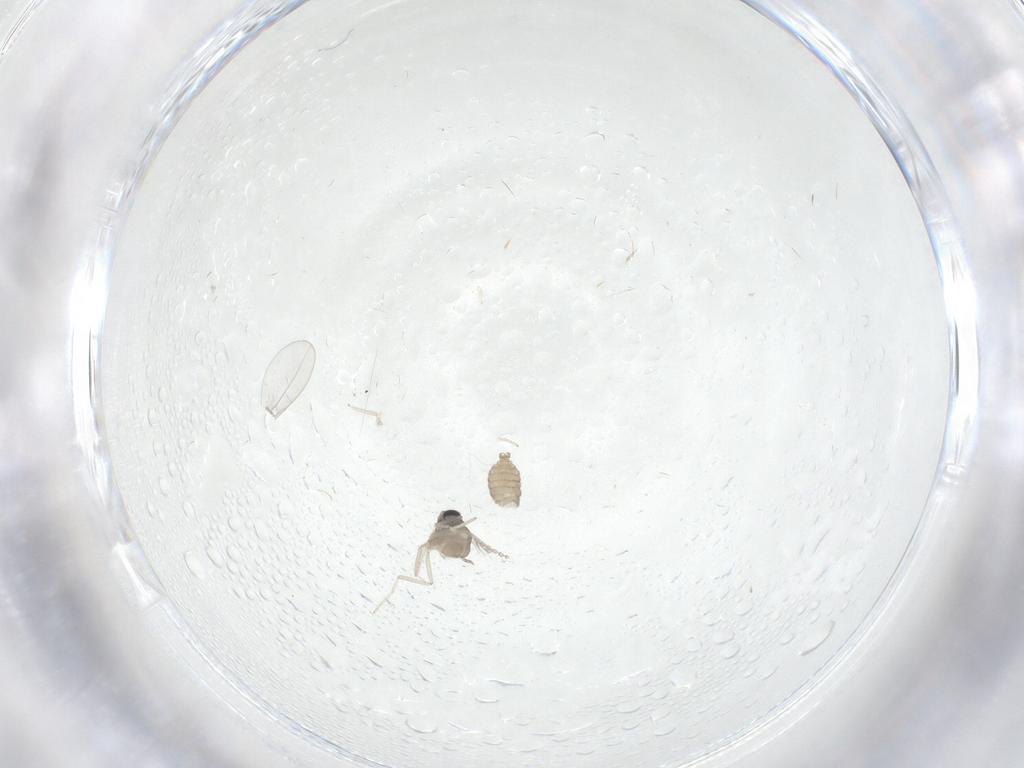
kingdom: Animalia
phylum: Arthropoda
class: Insecta
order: Diptera
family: Cecidomyiidae
